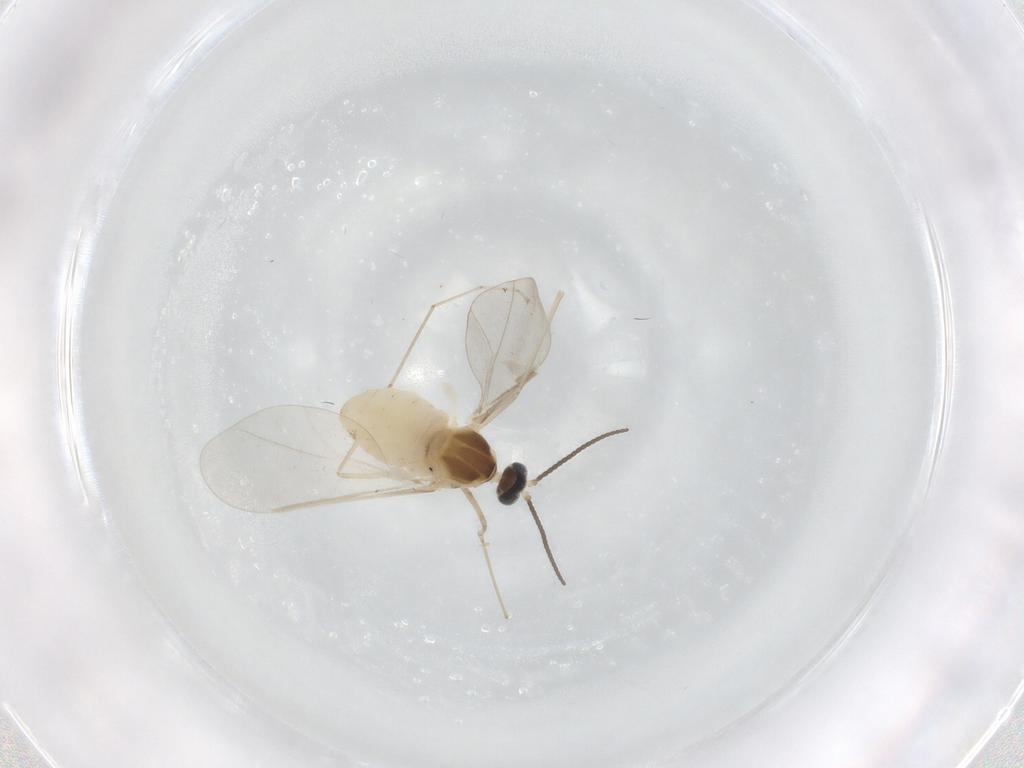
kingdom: Animalia
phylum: Arthropoda
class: Insecta
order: Diptera
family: Cecidomyiidae
